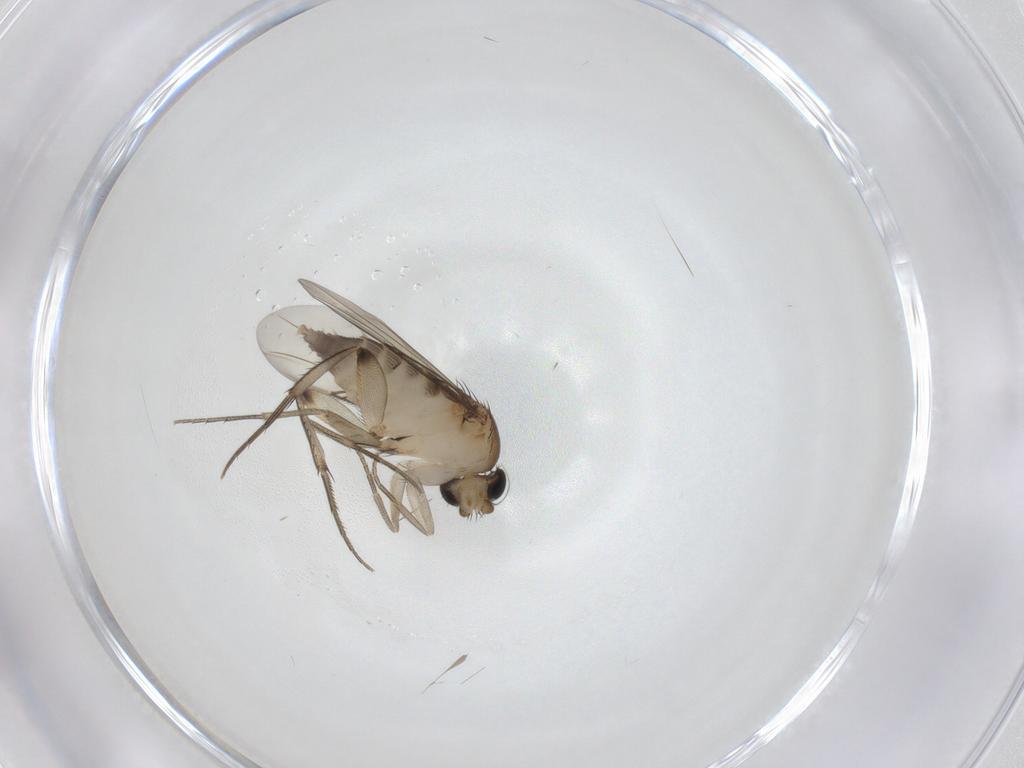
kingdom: Animalia
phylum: Arthropoda
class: Insecta
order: Diptera
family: Phoridae
